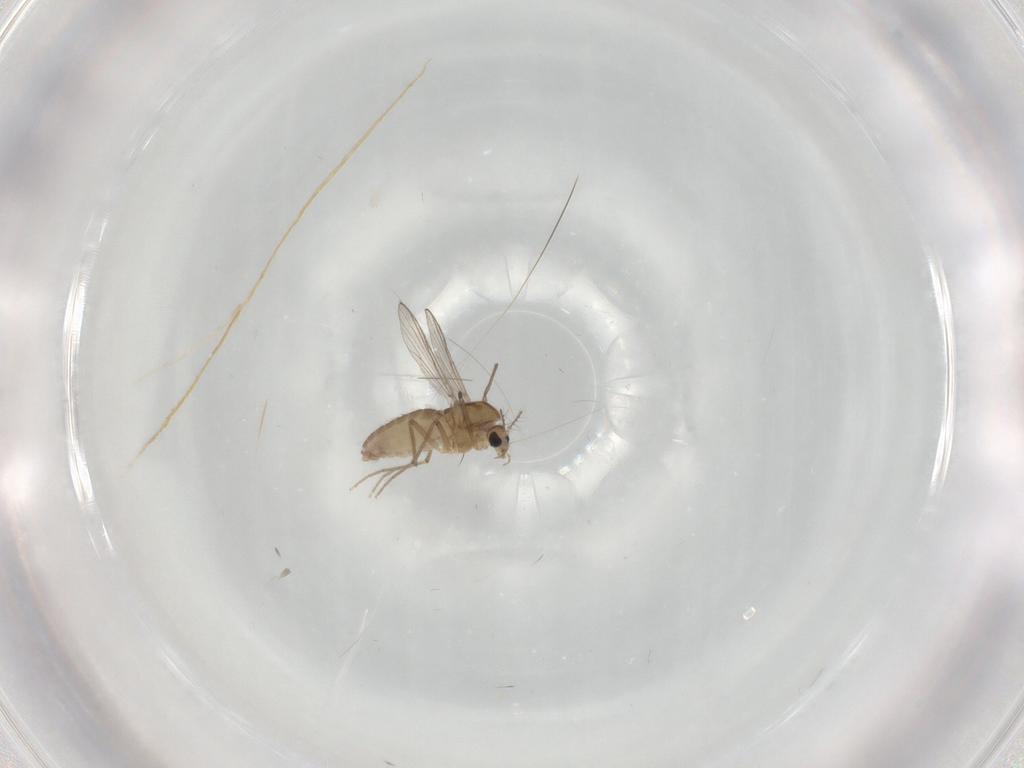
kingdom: Animalia
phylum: Arthropoda
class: Insecta
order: Diptera
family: Chironomidae
